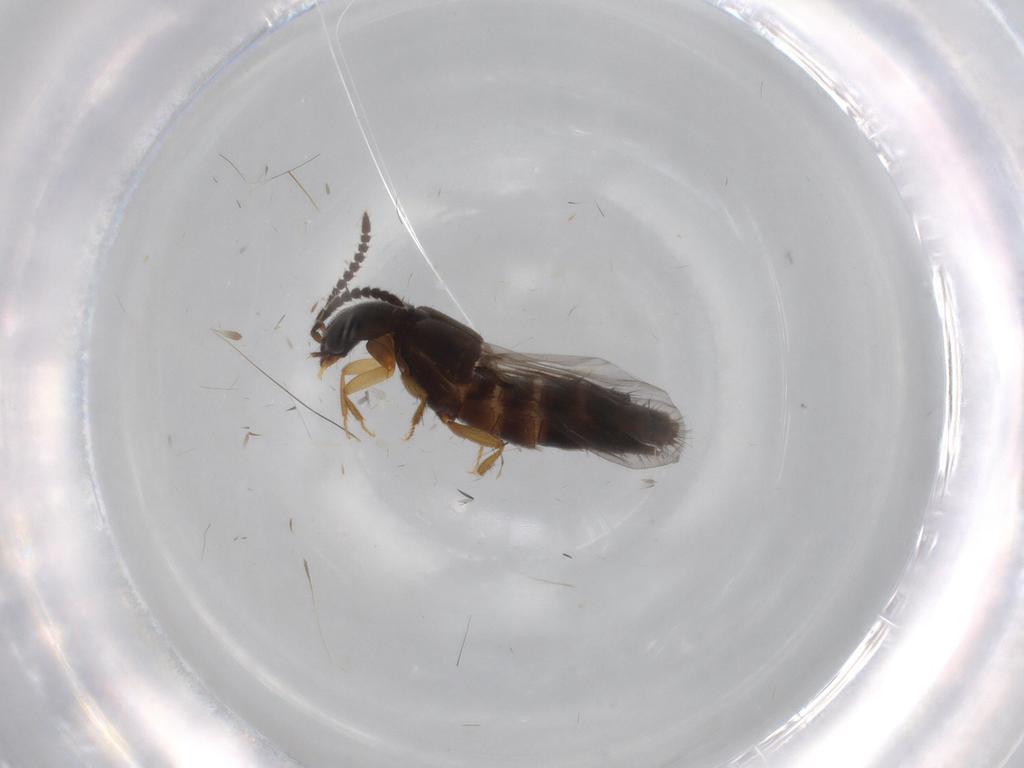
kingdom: Animalia
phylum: Arthropoda
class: Insecta
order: Coleoptera
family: Staphylinidae
